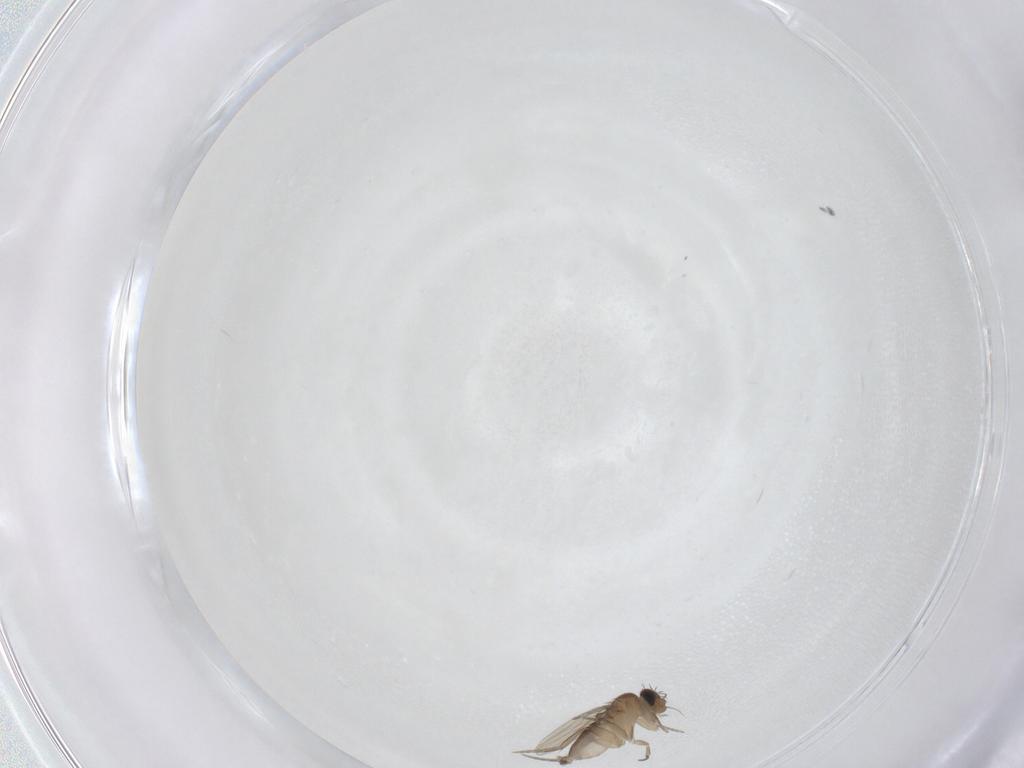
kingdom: Animalia
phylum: Arthropoda
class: Insecta
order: Diptera
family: Phoridae
